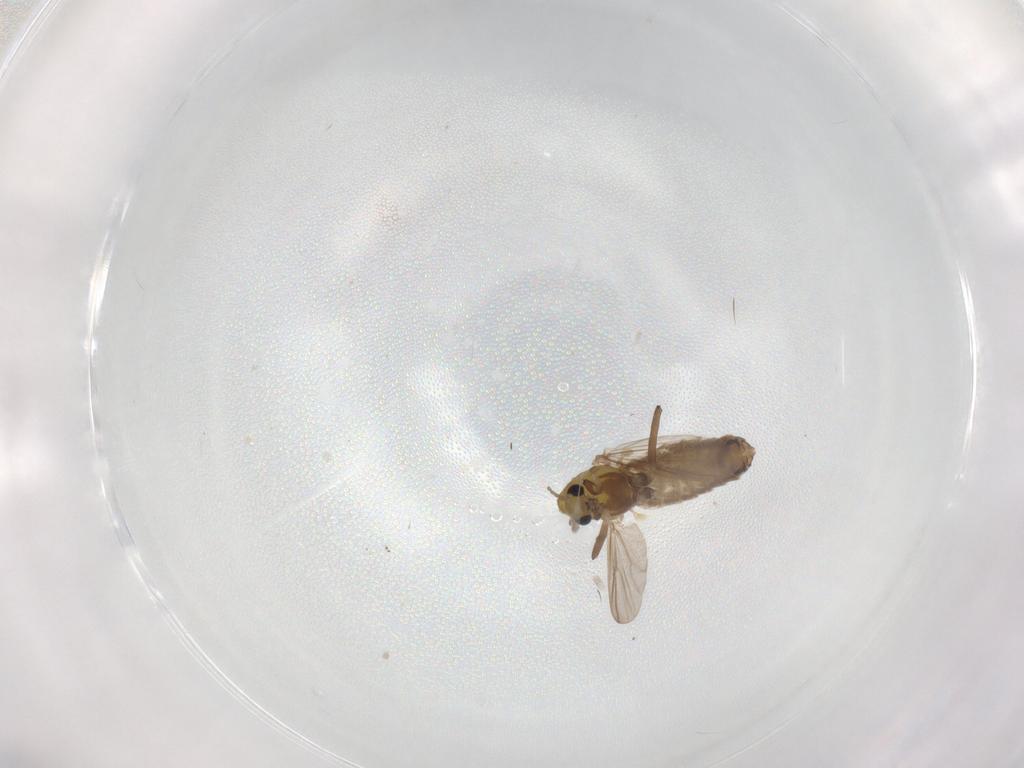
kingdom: Animalia
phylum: Arthropoda
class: Insecta
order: Diptera
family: Chironomidae
